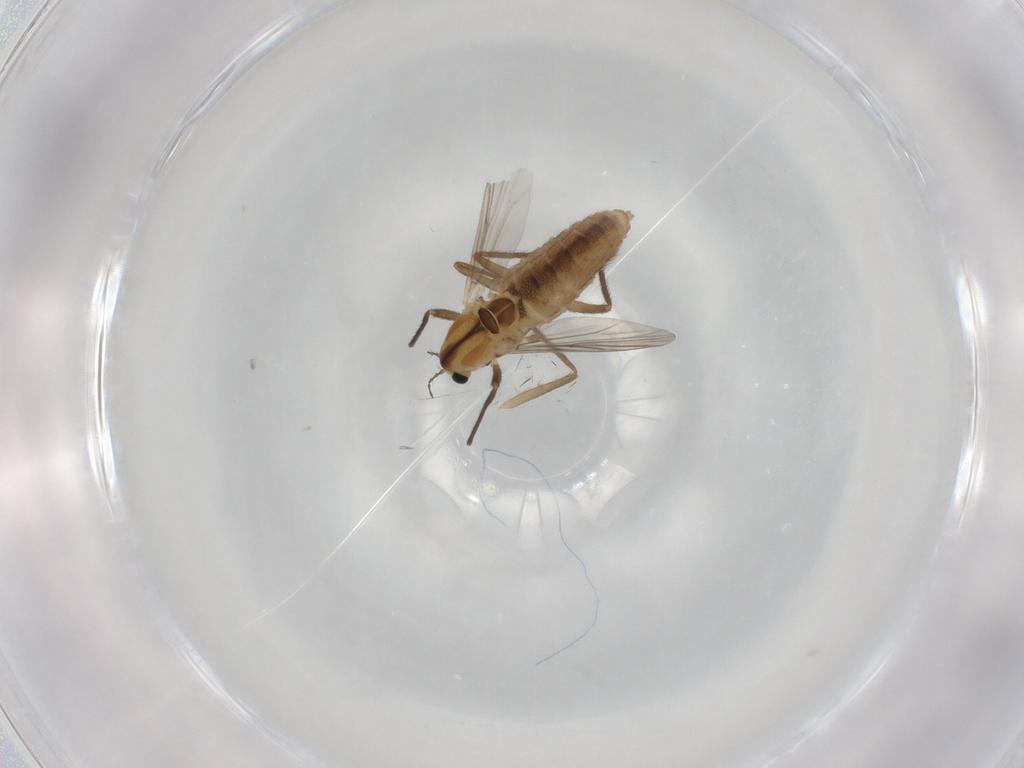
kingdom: Animalia
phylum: Arthropoda
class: Insecta
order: Diptera
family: Chironomidae
